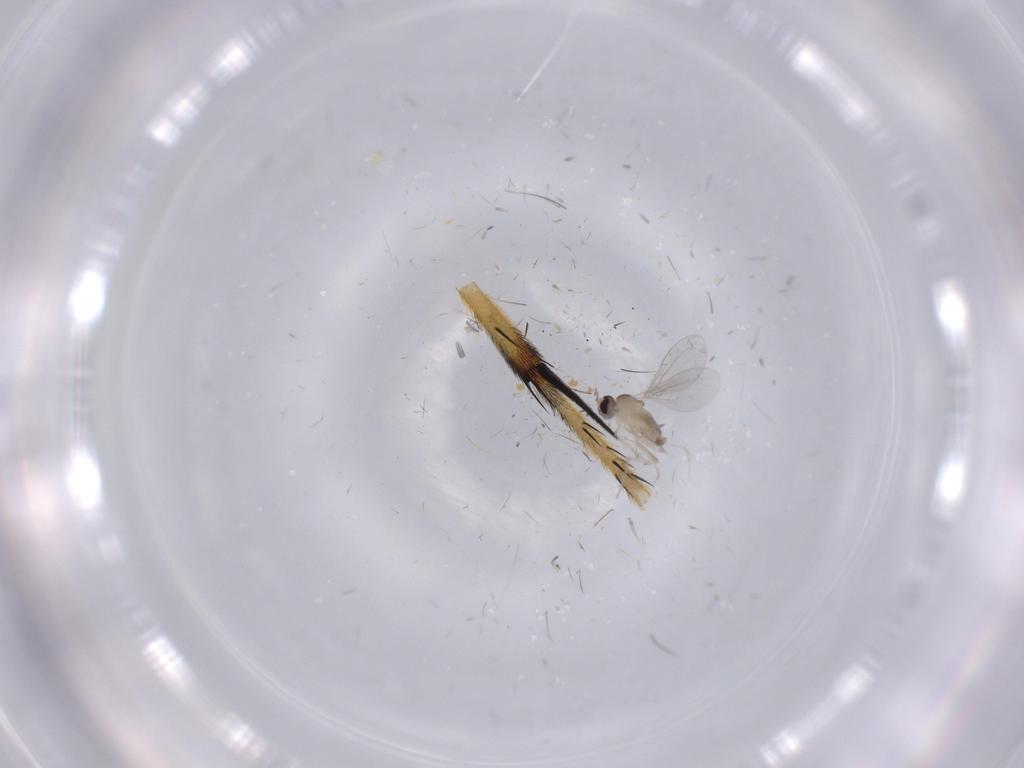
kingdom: Animalia
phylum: Arthropoda
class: Insecta
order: Diptera
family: Cecidomyiidae
